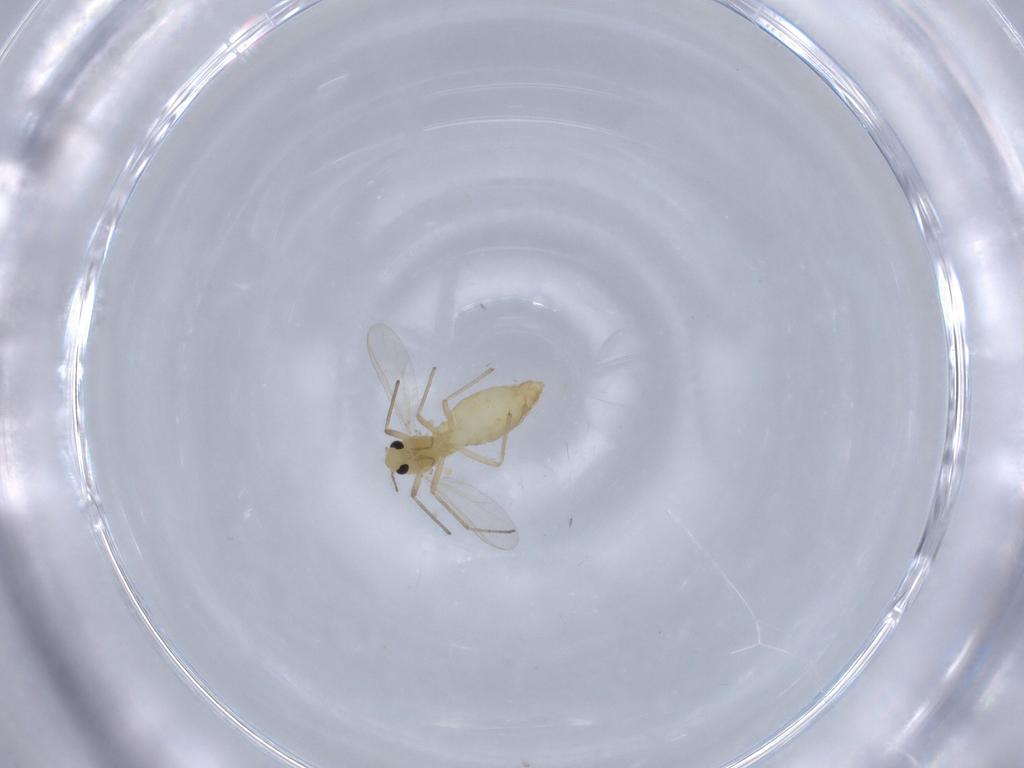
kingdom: Animalia
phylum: Arthropoda
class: Insecta
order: Diptera
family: Chironomidae
